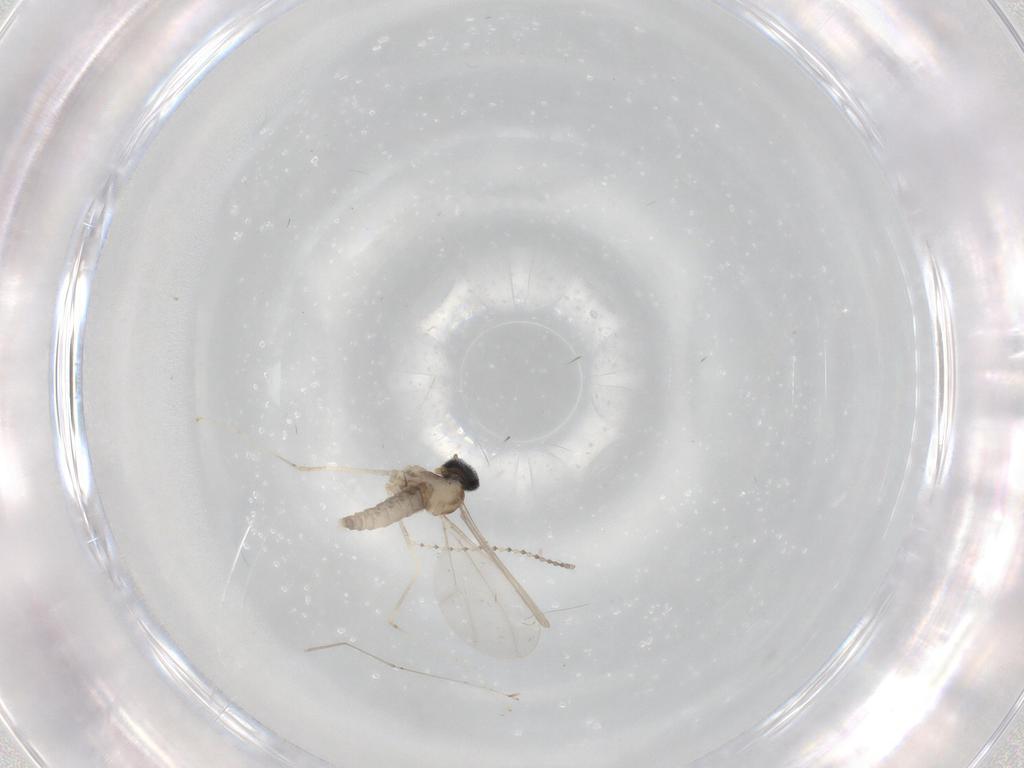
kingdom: Animalia
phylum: Arthropoda
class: Insecta
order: Diptera
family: Cecidomyiidae
